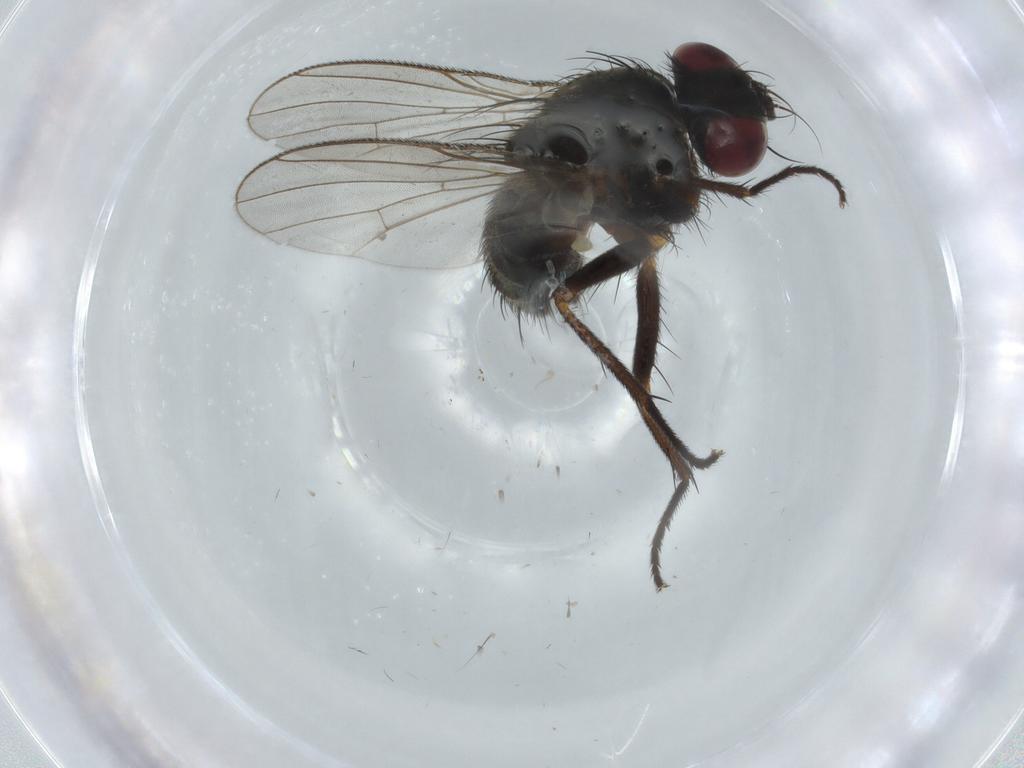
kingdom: Animalia
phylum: Arthropoda
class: Insecta
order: Diptera
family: Muscidae
